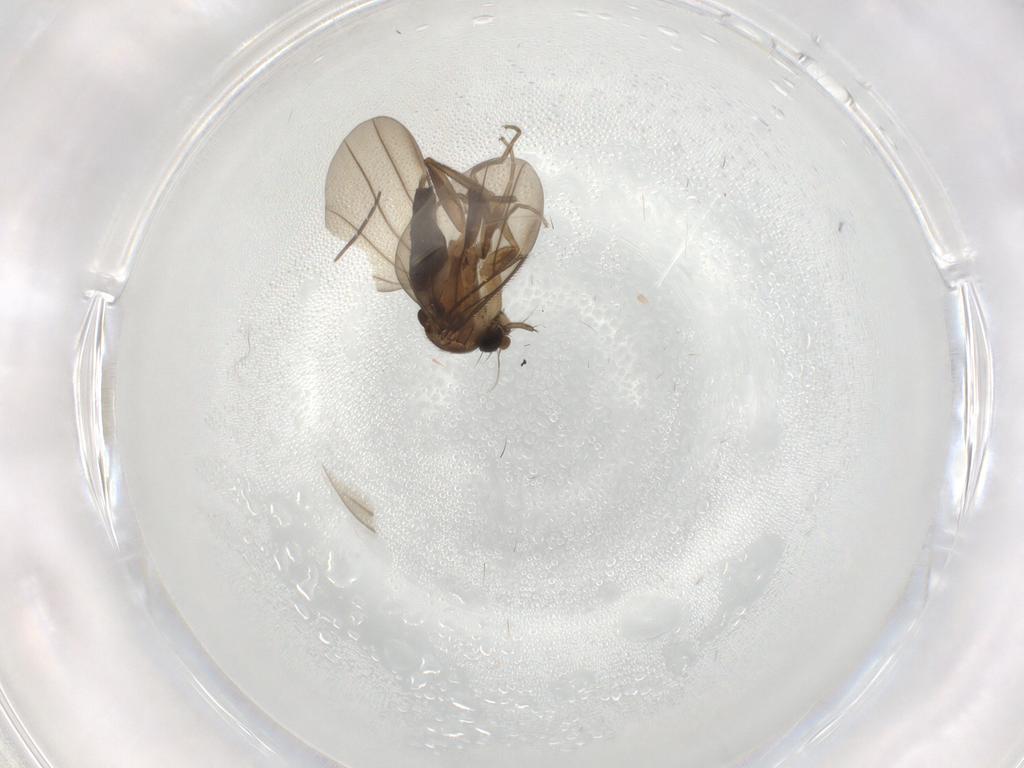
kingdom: Animalia
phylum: Arthropoda
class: Insecta
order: Diptera
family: Phoridae
